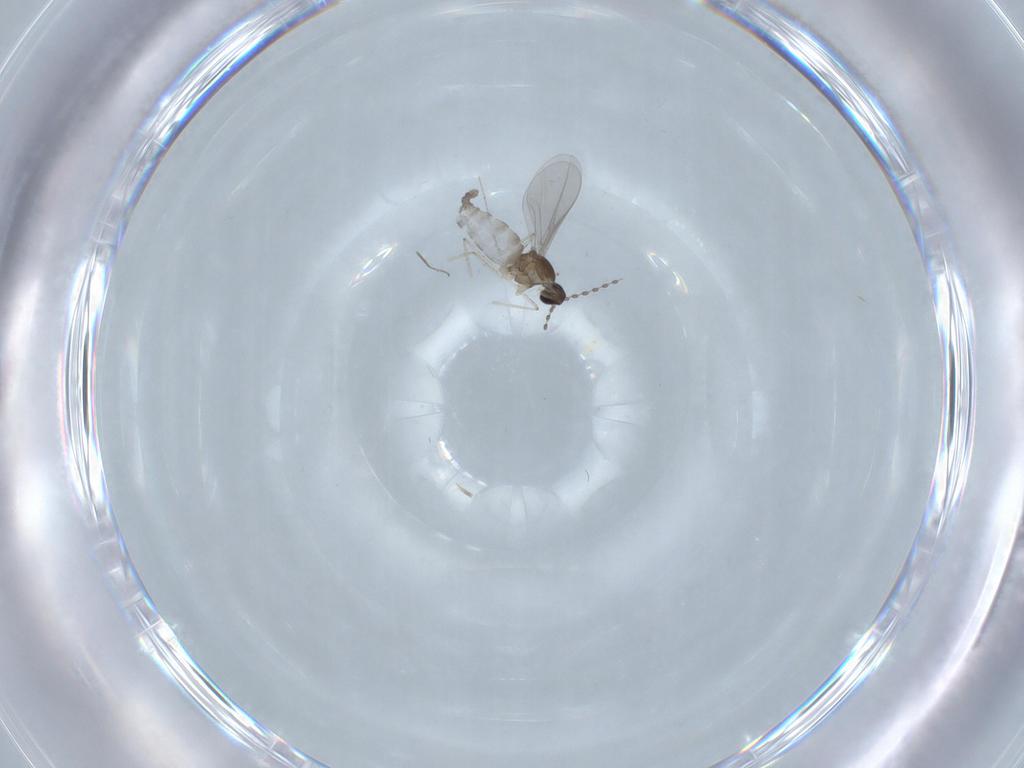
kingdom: Animalia
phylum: Arthropoda
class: Insecta
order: Diptera
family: Cecidomyiidae
